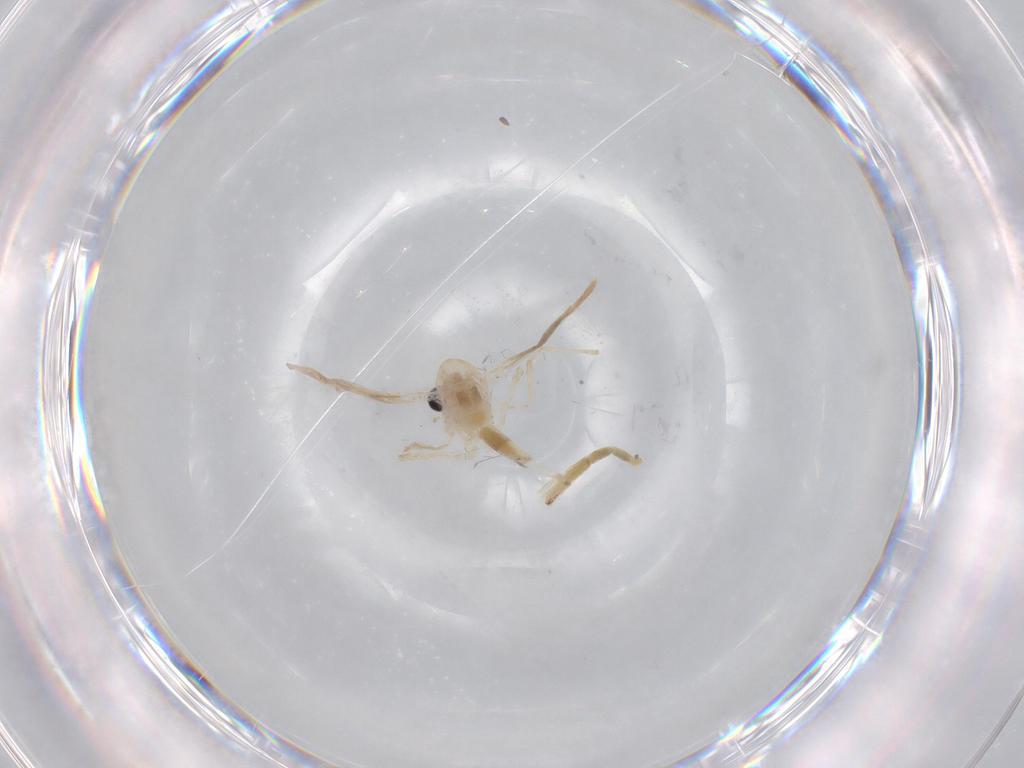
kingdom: Animalia
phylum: Arthropoda
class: Insecta
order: Diptera
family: Chironomidae
